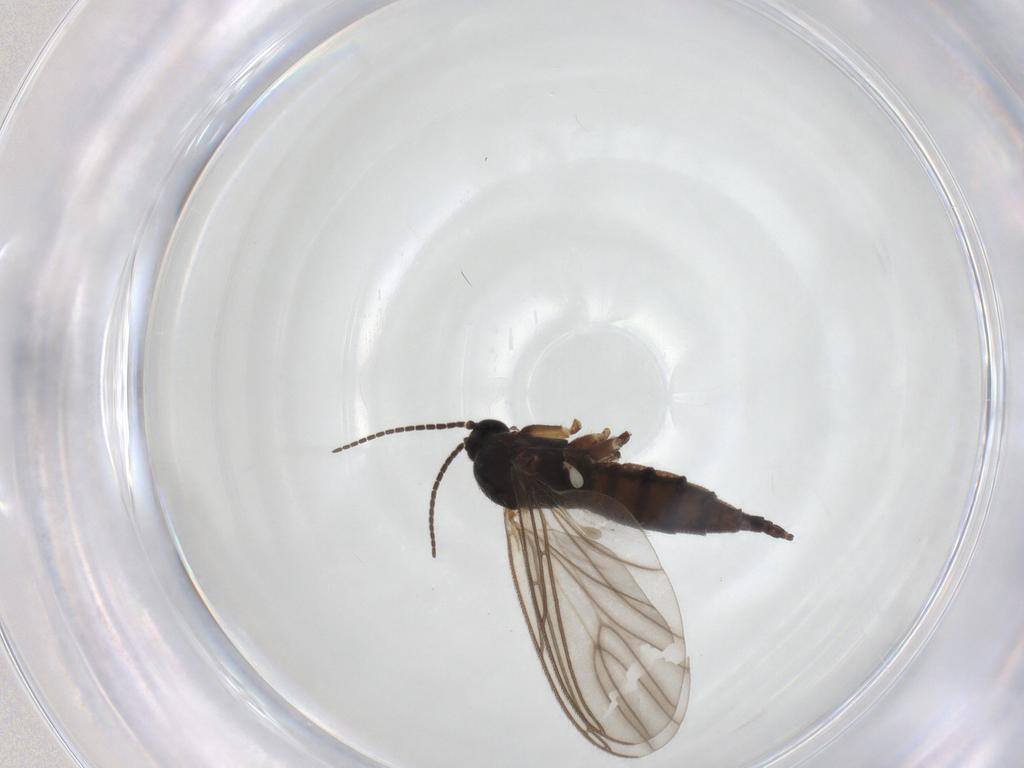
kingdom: Animalia
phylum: Arthropoda
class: Insecta
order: Diptera
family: Sciaridae
